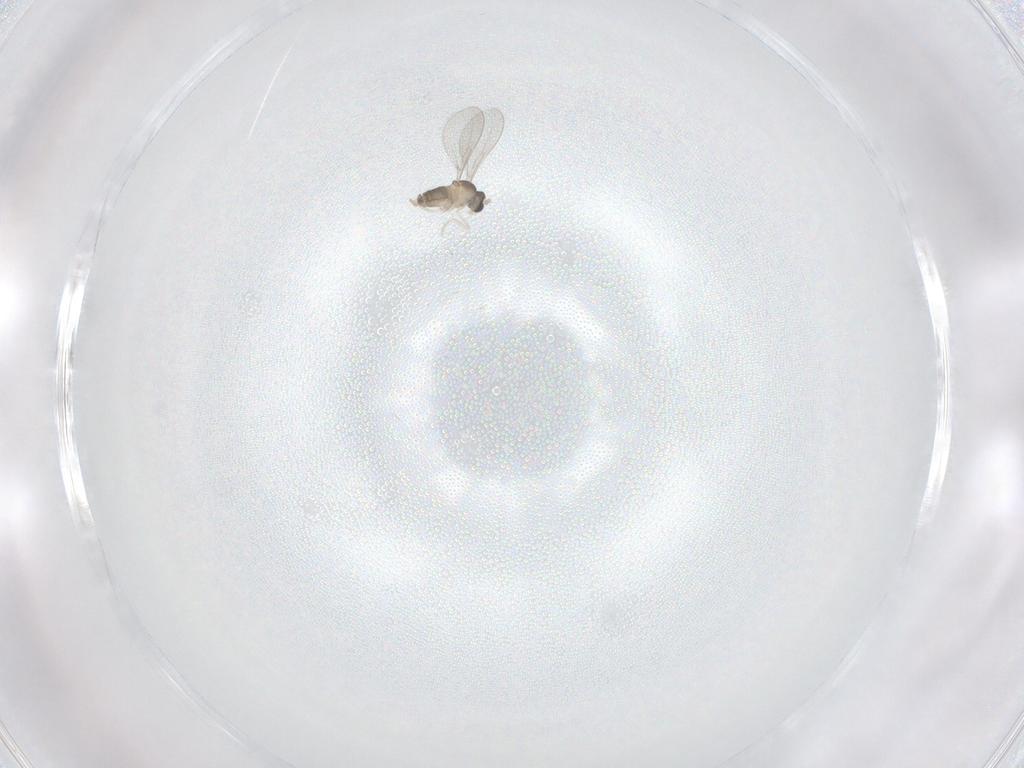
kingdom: Animalia
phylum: Arthropoda
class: Insecta
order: Diptera
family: Cecidomyiidae
